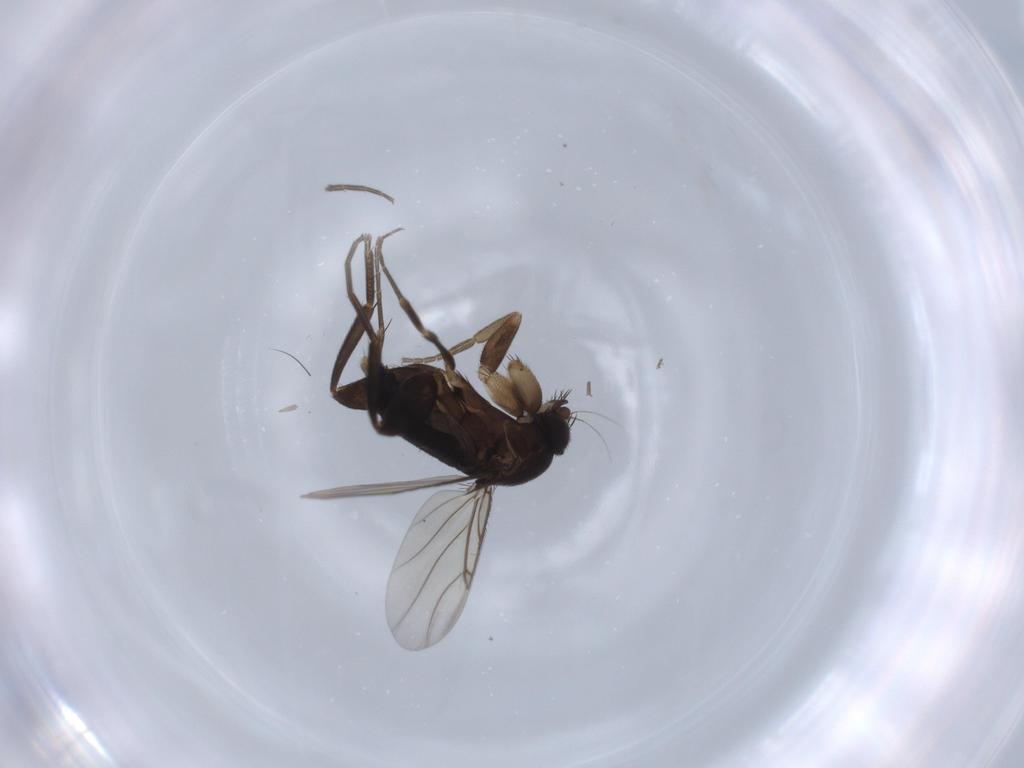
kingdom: Animalia
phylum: Arthropoda
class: Insecta
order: Diptera
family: Phoridae
